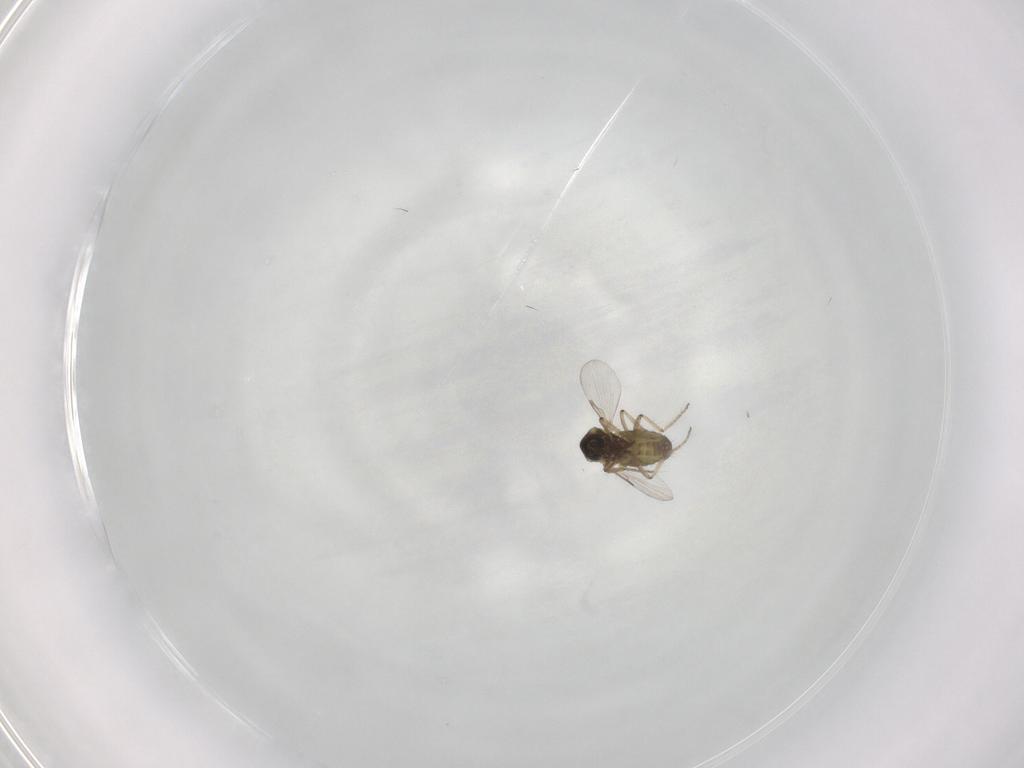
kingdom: Animalia
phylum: Arthropoda
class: Insecta
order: Diptera
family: Ceratopogonidae
